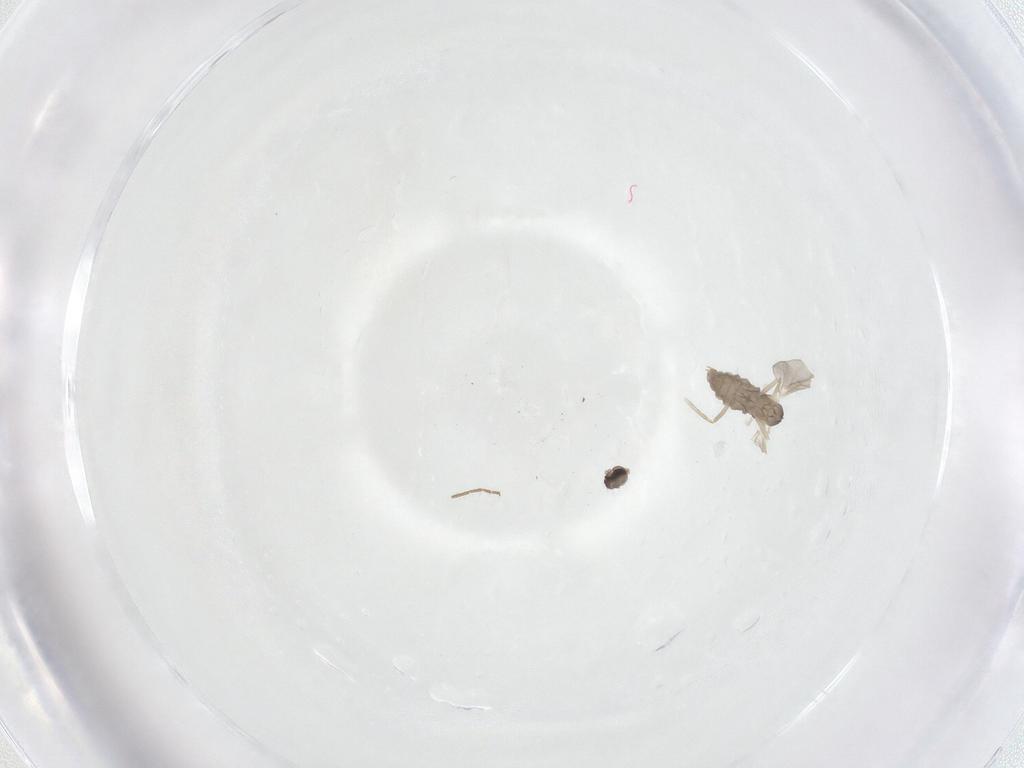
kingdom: Animalia
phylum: Arthropoda
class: Insecta
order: Diptera
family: Cecidomyiidae
